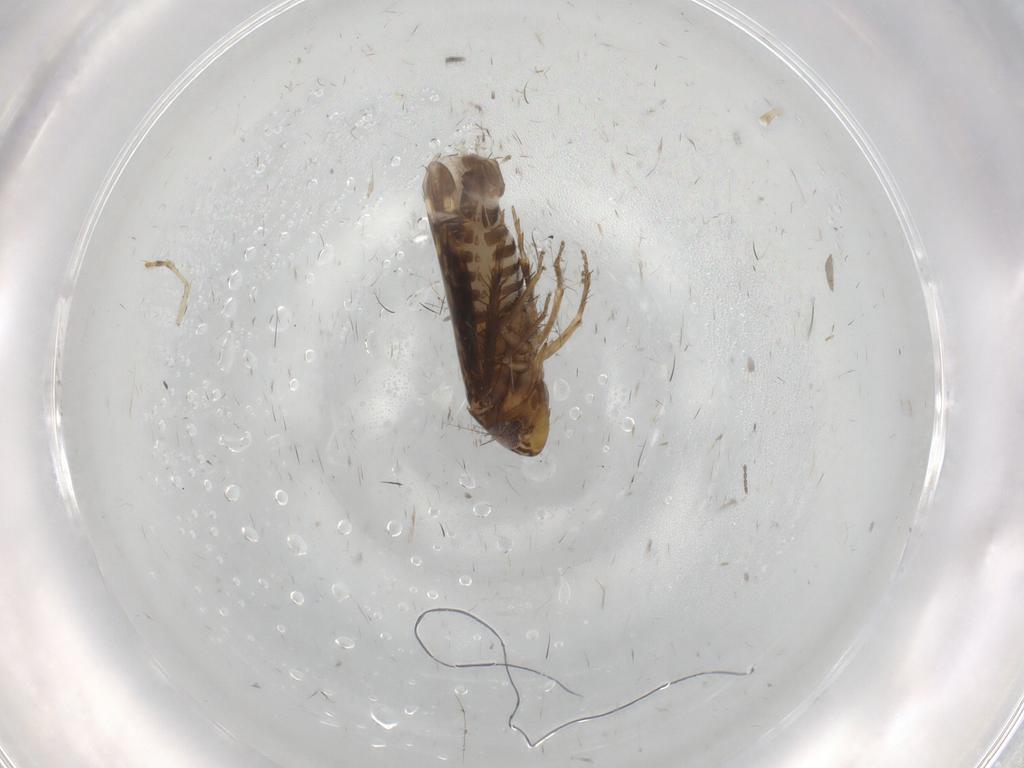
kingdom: Animalia
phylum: Arthropoda
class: Insecta
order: Hemiptera
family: Cicadellidae
